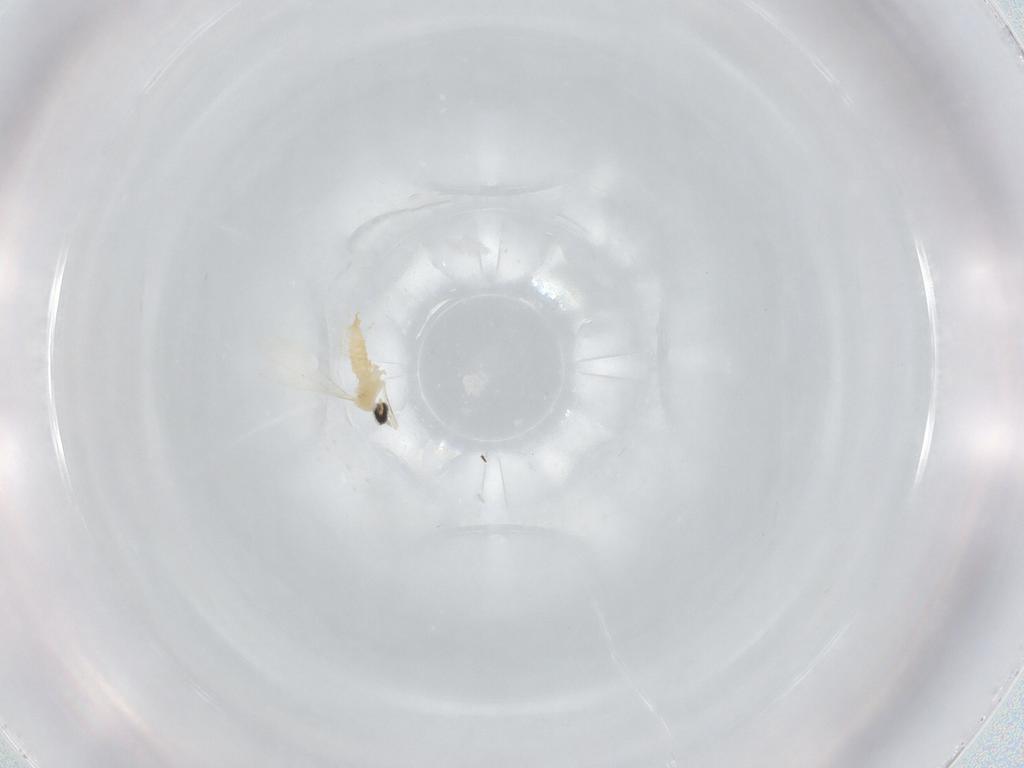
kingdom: Animalia
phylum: Arthropoda
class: Insecta
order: Diptera
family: Cecidomyiidae
